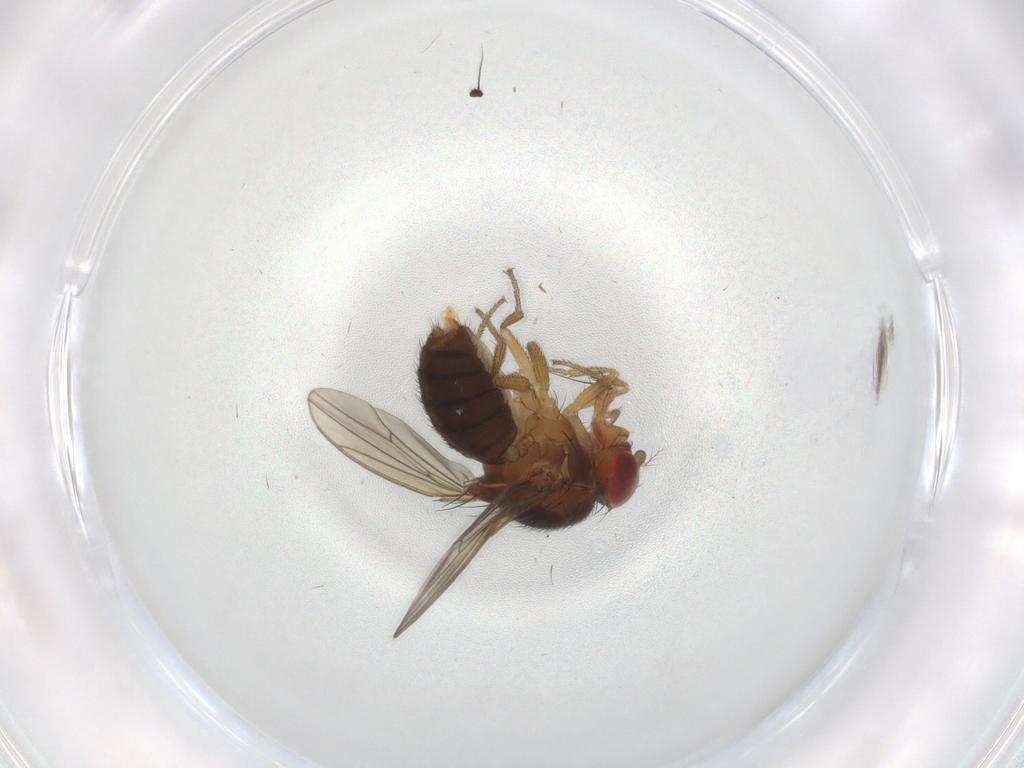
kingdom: Animalia
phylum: Arthropoda
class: Insecta
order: Diptera
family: Drosophilidae
